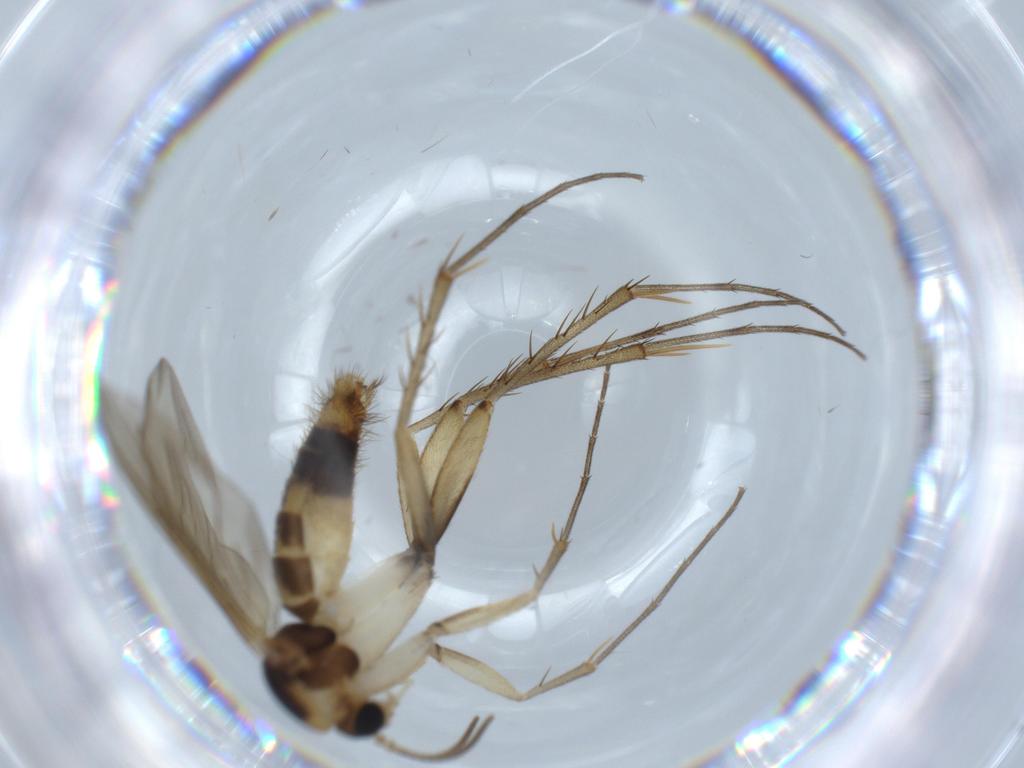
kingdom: Animalia
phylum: Arthropoda
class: Insecta
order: Diptera
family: Mycetophilidae
